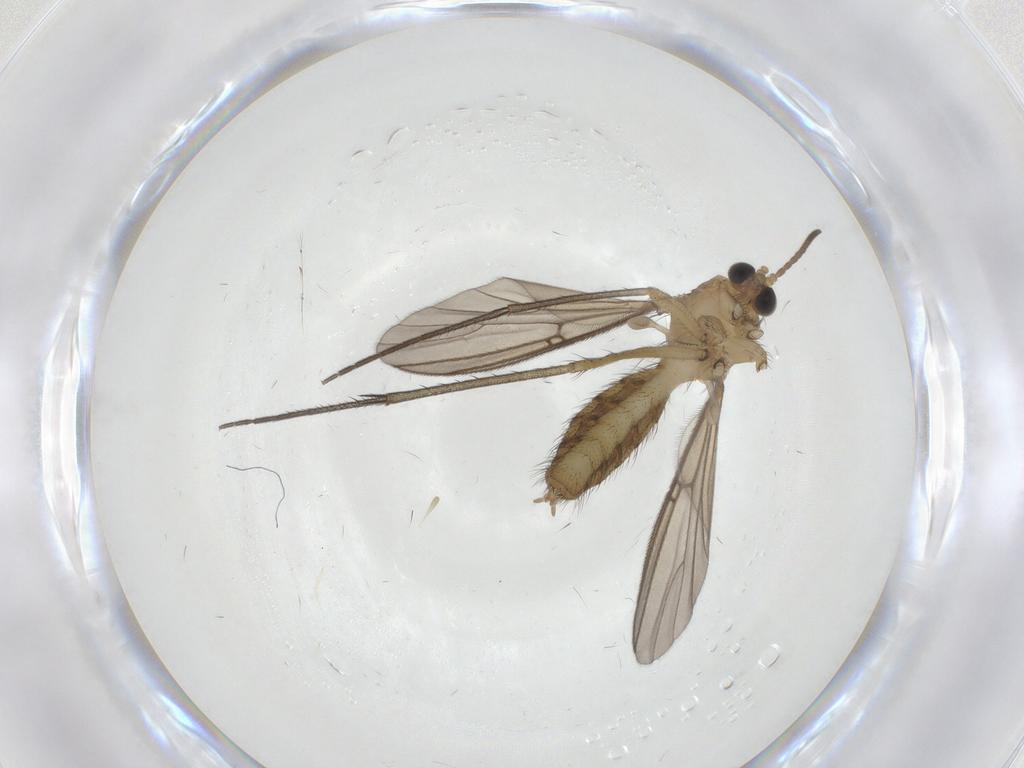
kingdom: Animalia
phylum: Arthropoda
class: Insecta
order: Diptera
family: Mycetophilidae
